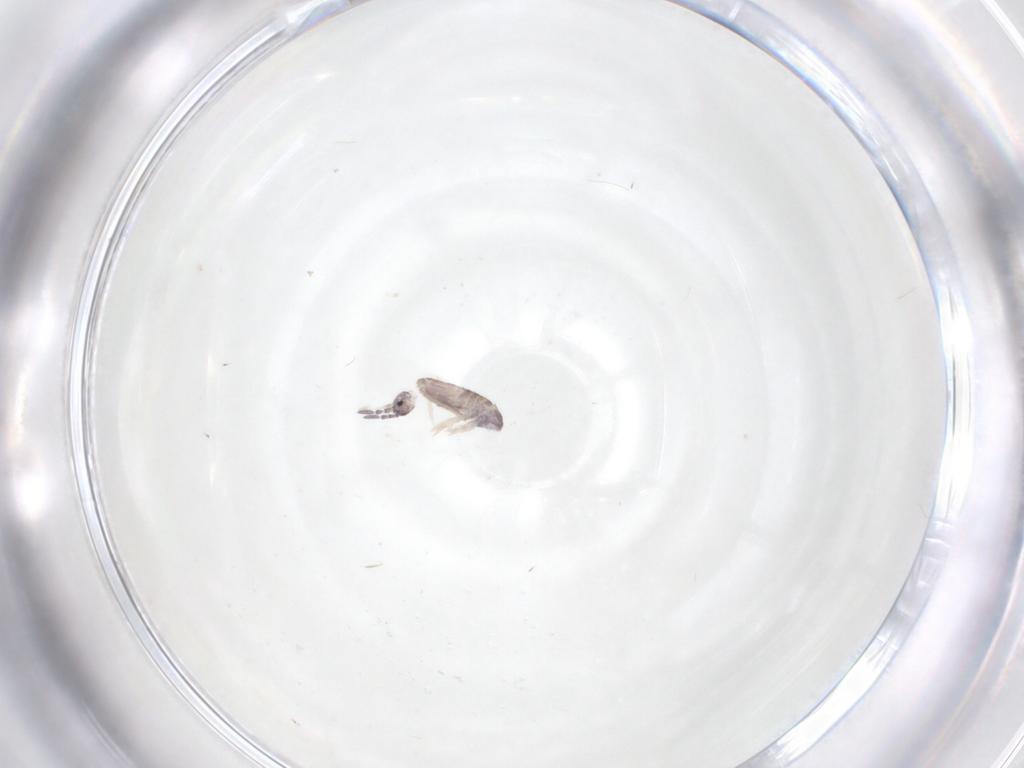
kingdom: Animalia
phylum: Arthropoda
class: Collembola
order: Entomobryomorpha
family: Entomobryidae
